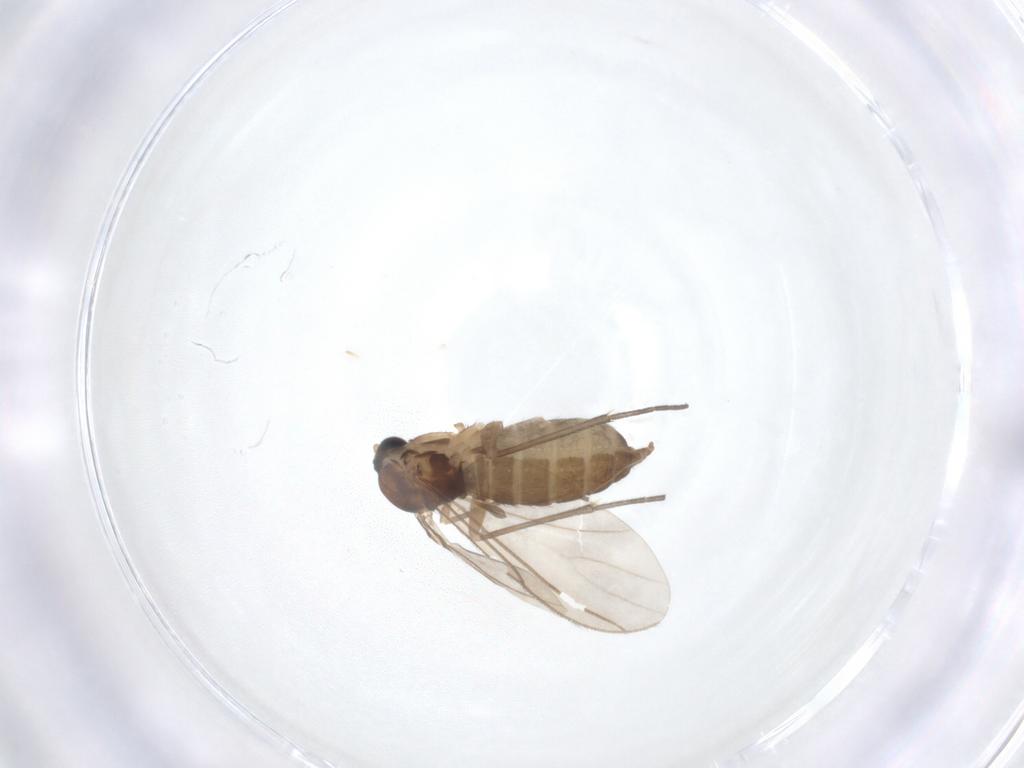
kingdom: Animalia
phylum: Arthropoda
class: Insecta
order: Diptera
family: Sciaridae
